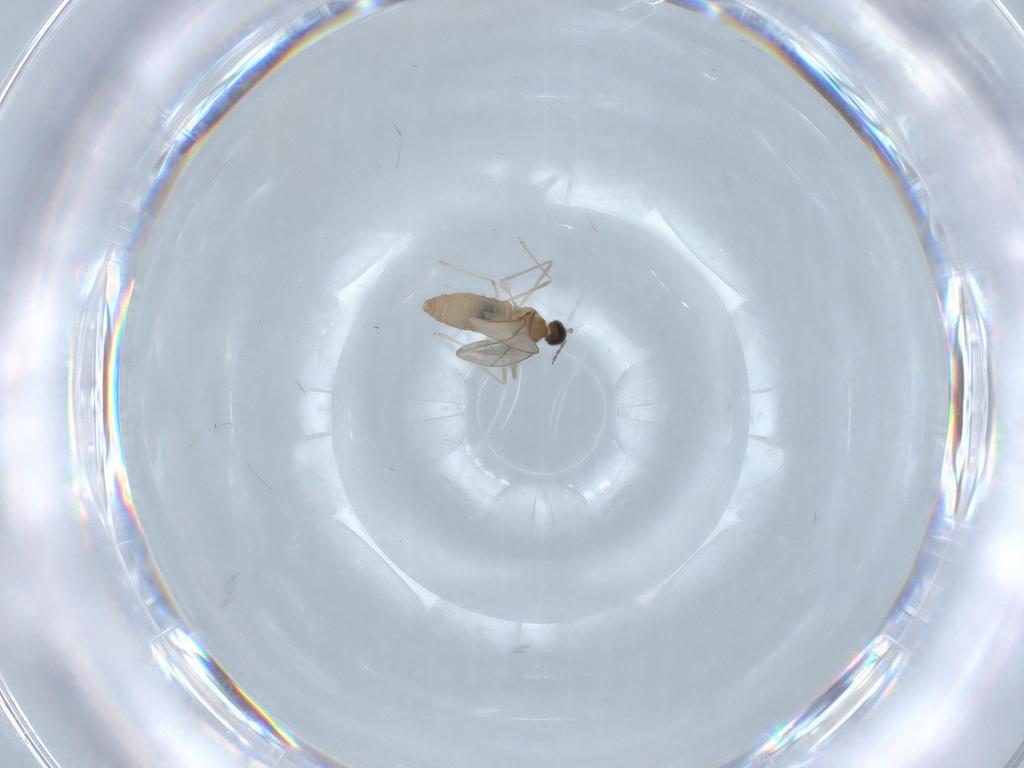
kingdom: Animalia
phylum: Arthropoda
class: Insecta
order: Diptera
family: Cecidomyiidae
